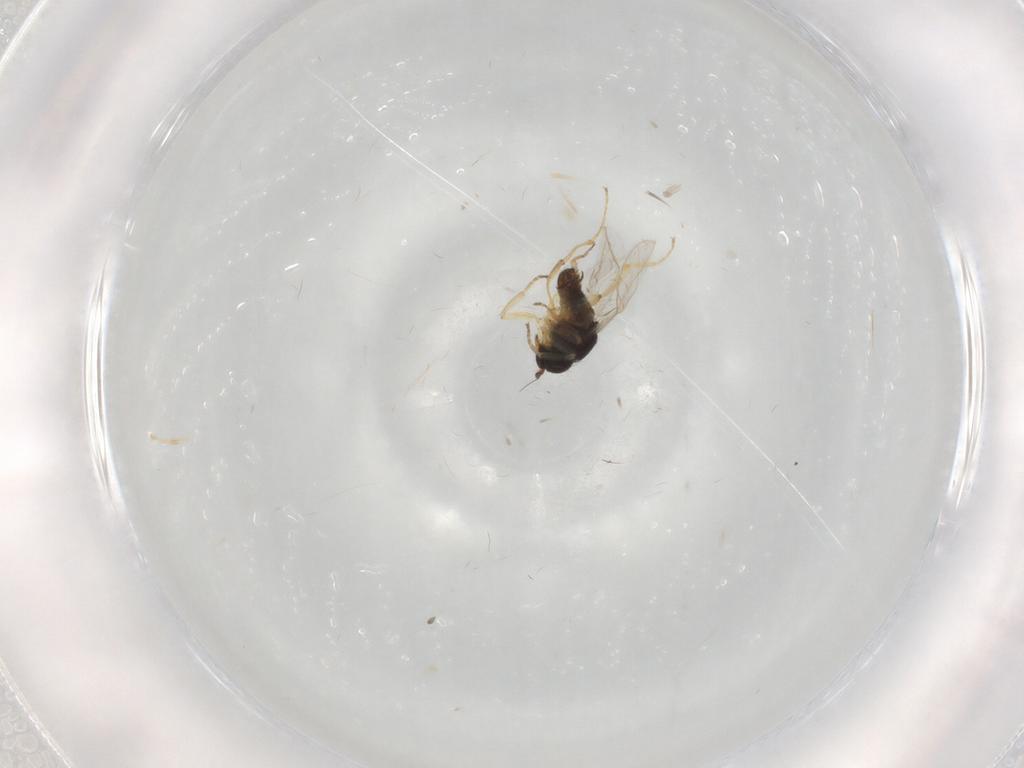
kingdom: Animalia
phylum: Arthropoda
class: Insecta
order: Diptera
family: Hybotidae
